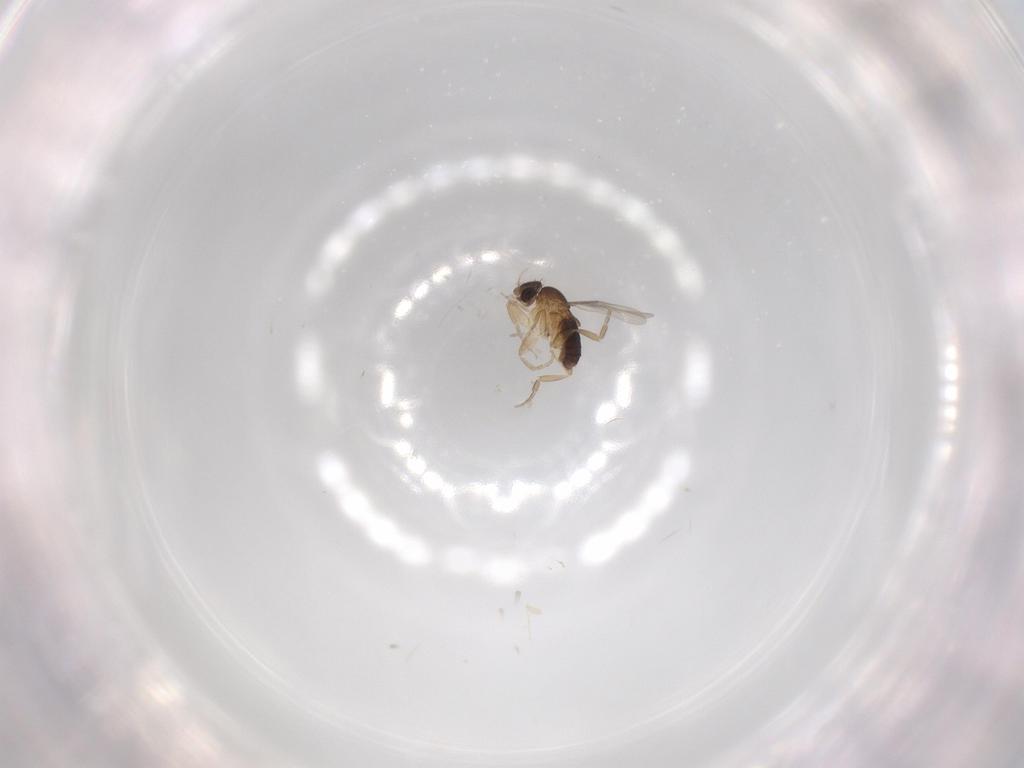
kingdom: Animalia
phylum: Arthropoda
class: Insecta
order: Diptera
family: Phoridae
